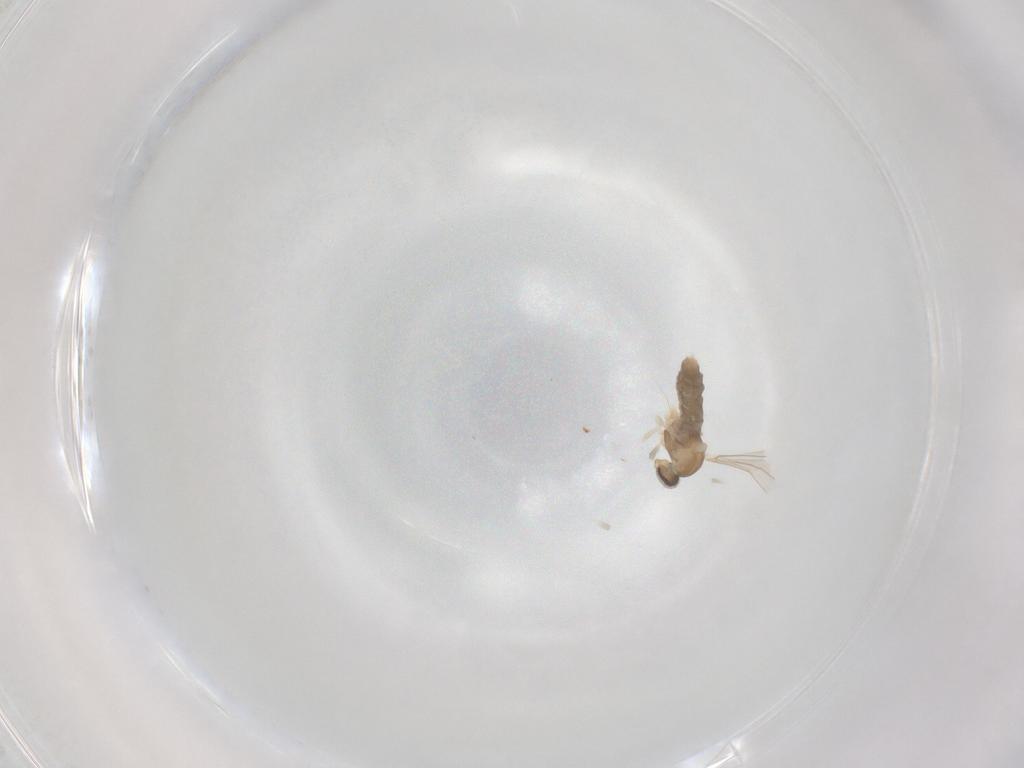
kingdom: Animalia
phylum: Arthropoda
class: Insecta
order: Diptera
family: Cecidomyiidae
